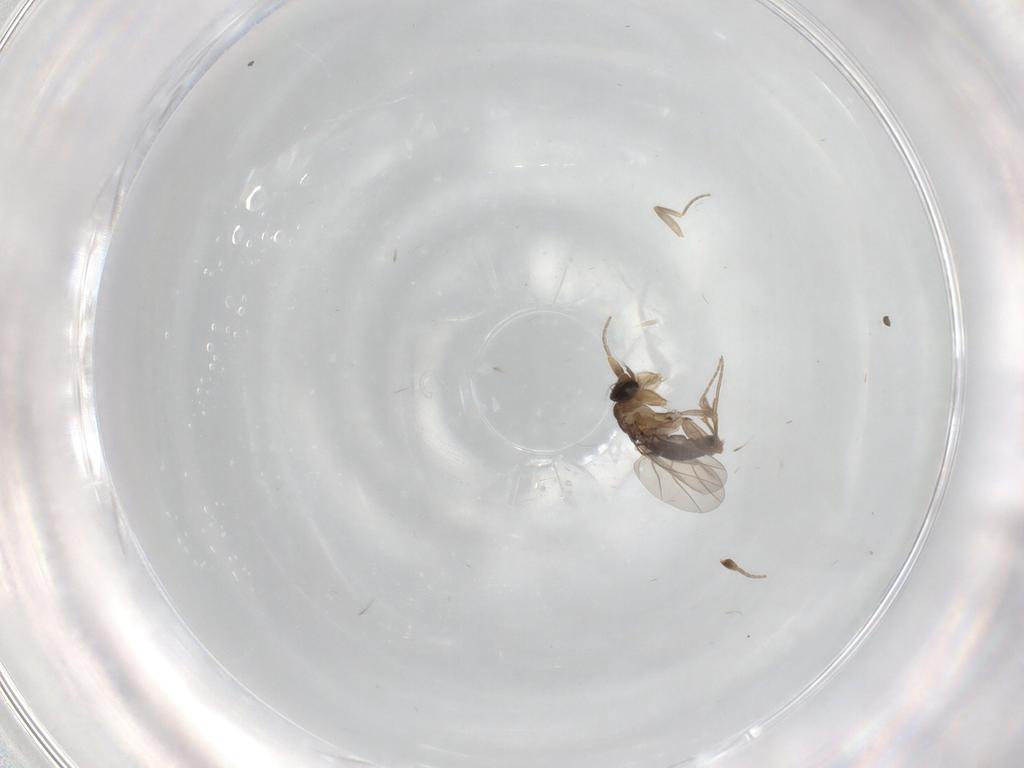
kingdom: Animalia
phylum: Arthropoda
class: Insecta
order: Diptera
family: Phoridae
